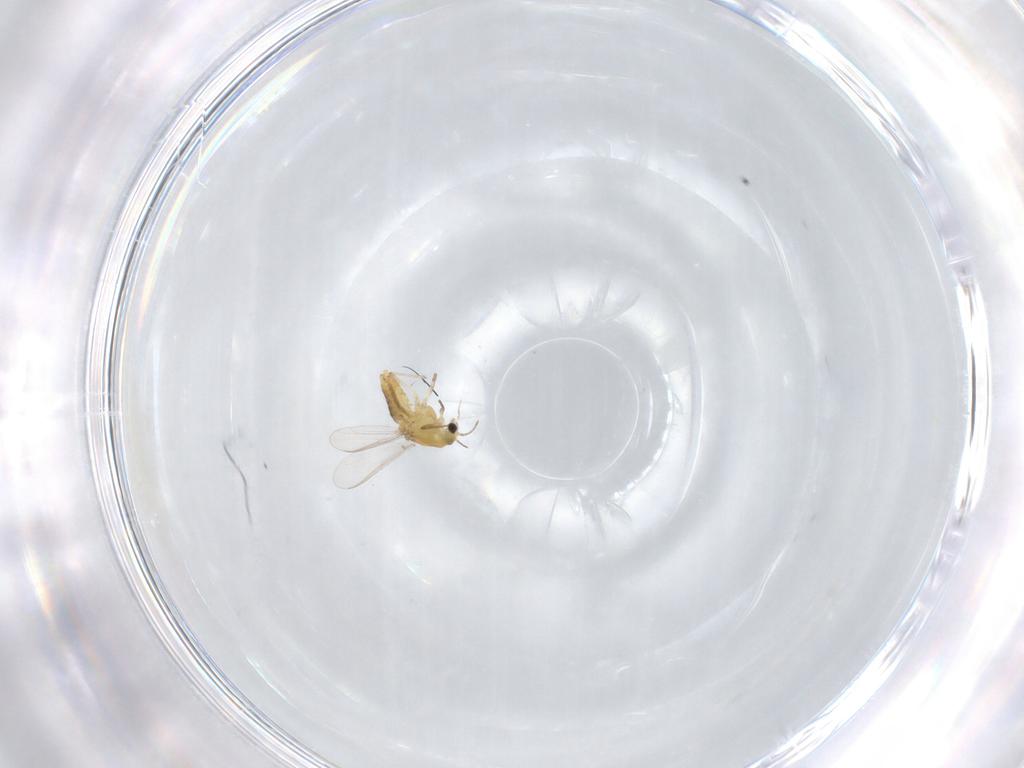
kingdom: Animalia
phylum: Arthropoda
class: Insecta
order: Diptera
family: Chironomidae
